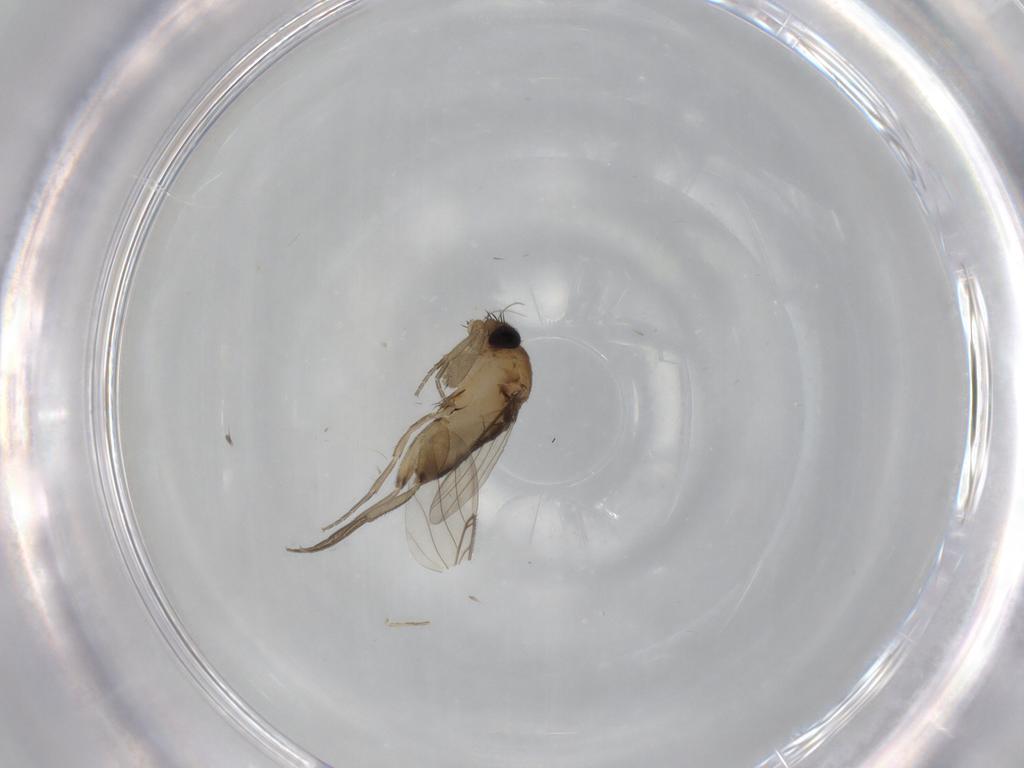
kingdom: Animalia
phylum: Arthropoda
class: Insecta
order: Diptera
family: Phoridae
